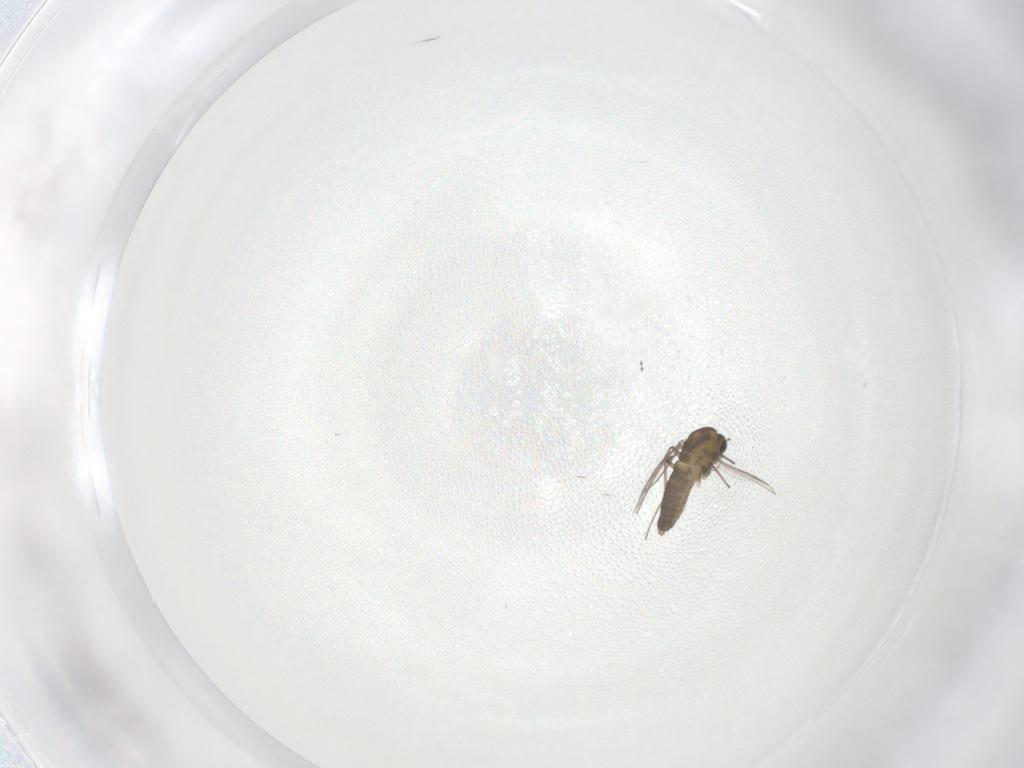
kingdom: Animalia
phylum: Arthropoda
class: Insecta
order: Diptera
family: Chironomidae
